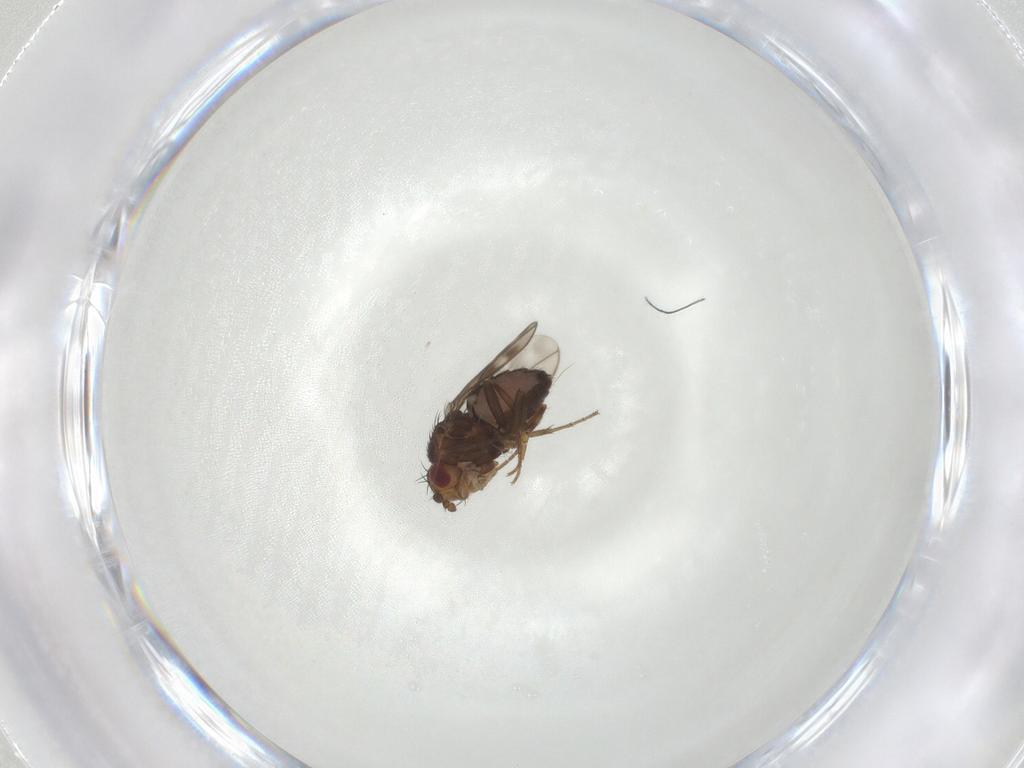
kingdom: Animalia
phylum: Arthropoda
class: Insecta
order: Diptera
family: Sphaeroceridae
